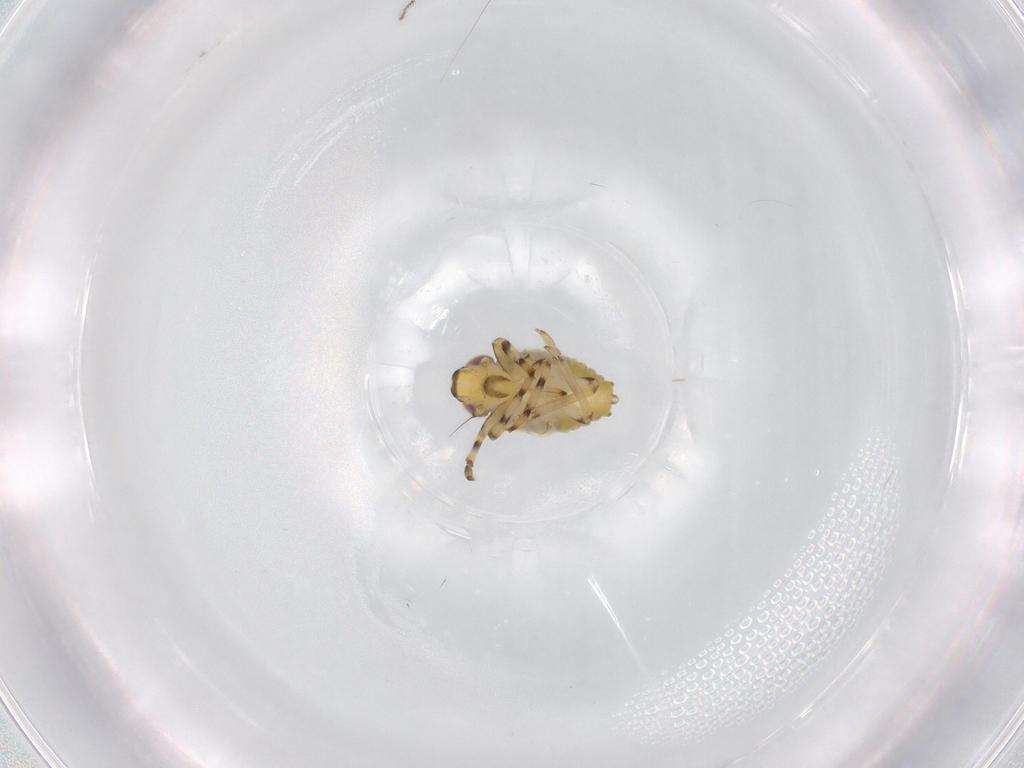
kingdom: Animalia
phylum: Arthropoda
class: Insecta
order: Hemiptera
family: Issidae
